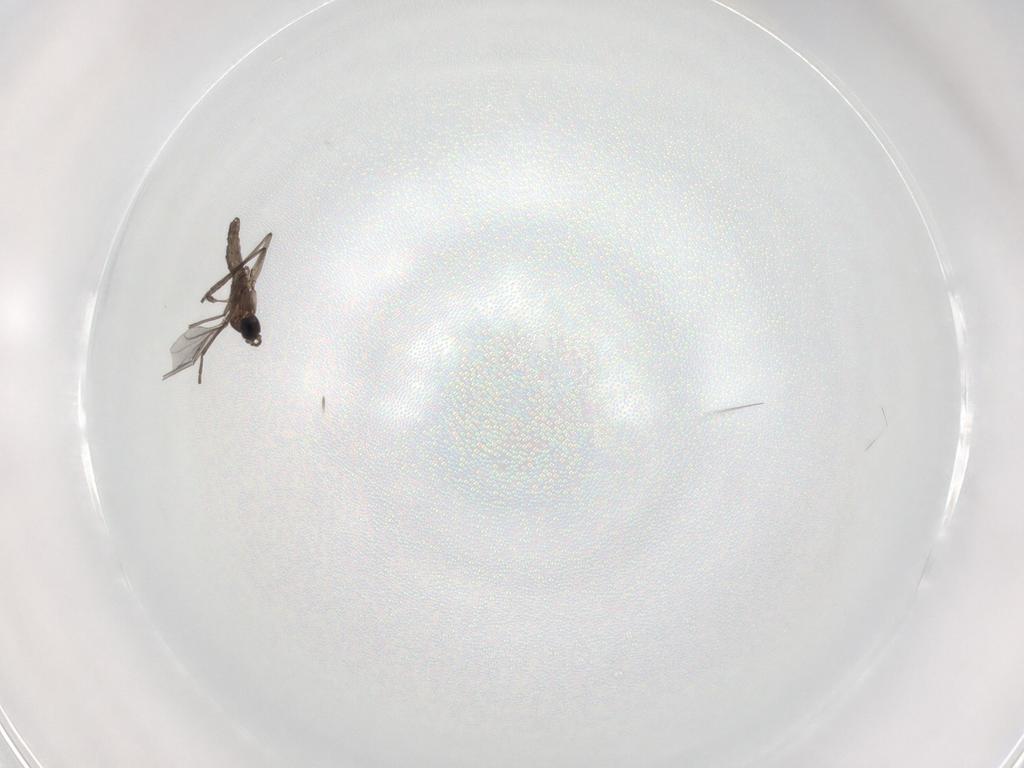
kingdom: Animalia
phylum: Arthropoda
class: Insecta
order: Diptera
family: Sciaridae
